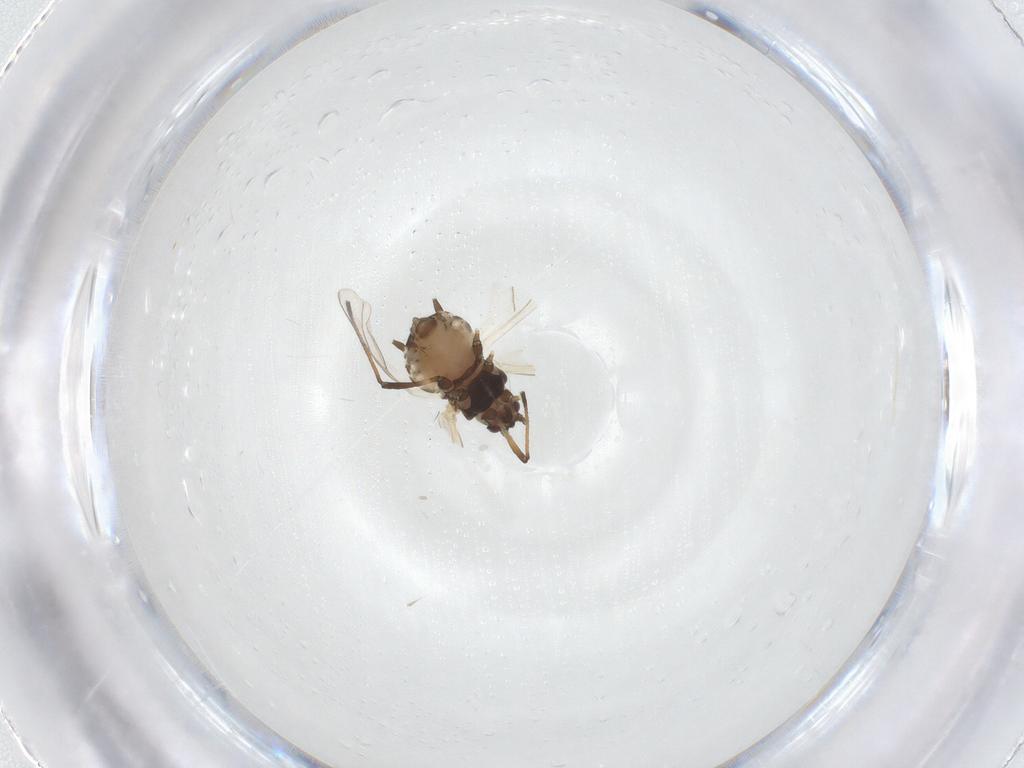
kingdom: Animalia
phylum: Arthropoda
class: Insecta
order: Hemiptera
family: Aphididae
